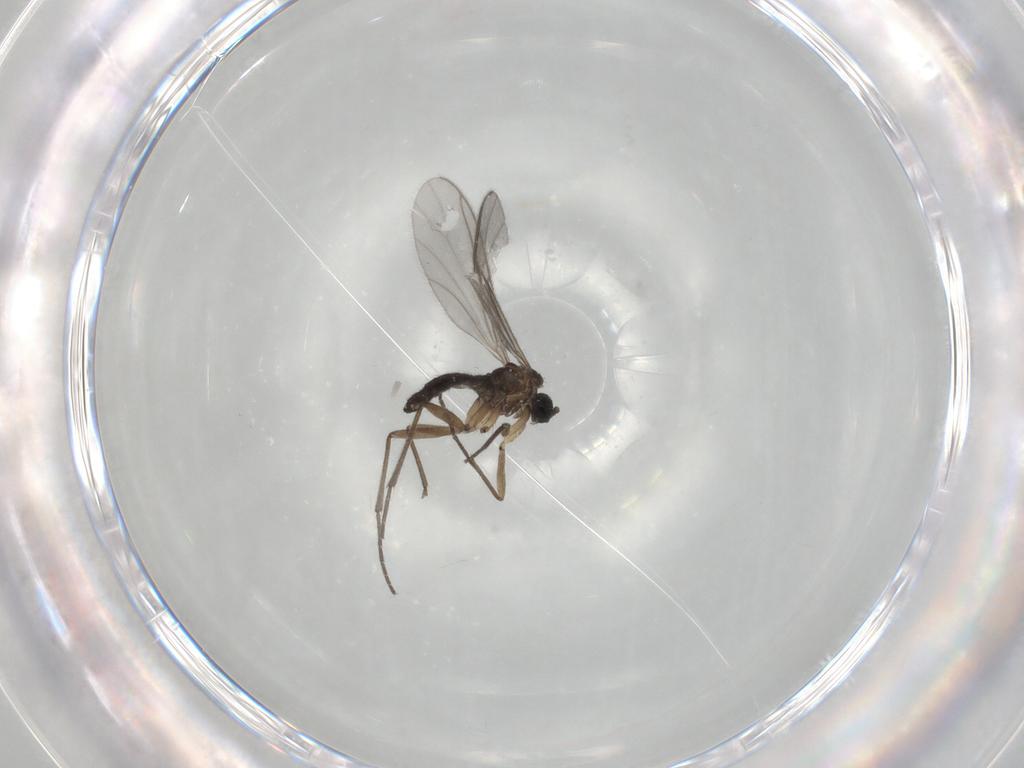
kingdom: Animalia
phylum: Arthropoda
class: Insecta
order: Diptera
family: Sciaridae
